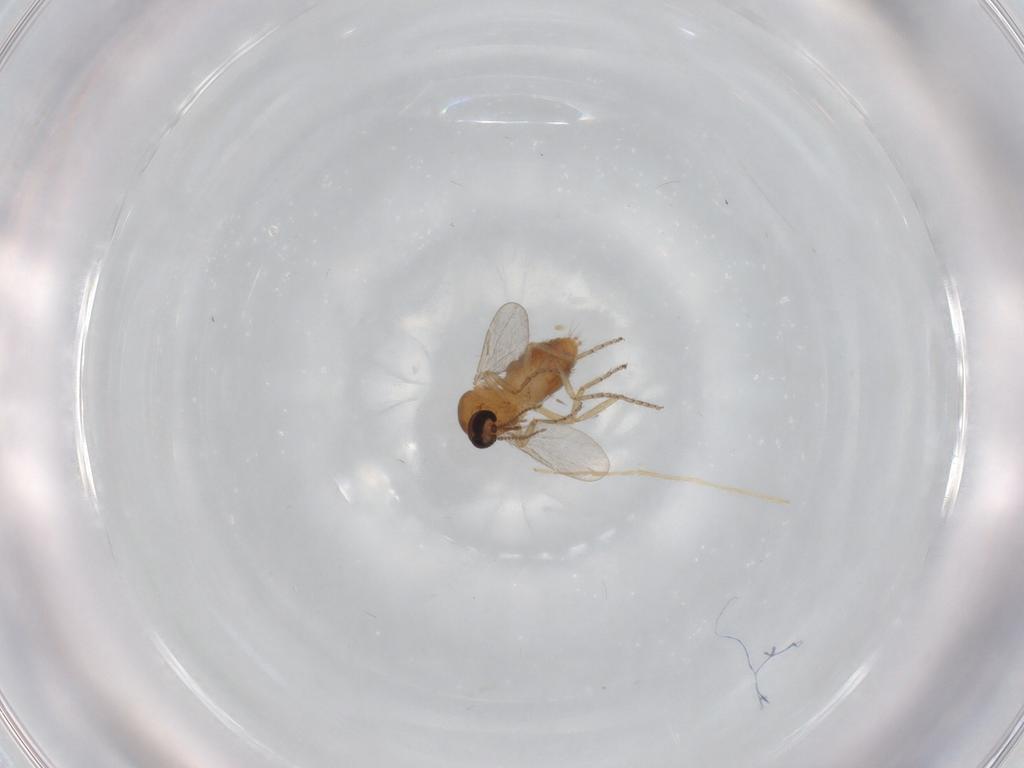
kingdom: Animalia
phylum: Arthropoda
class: Insecta
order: Diptera
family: Ceratopogonidae
